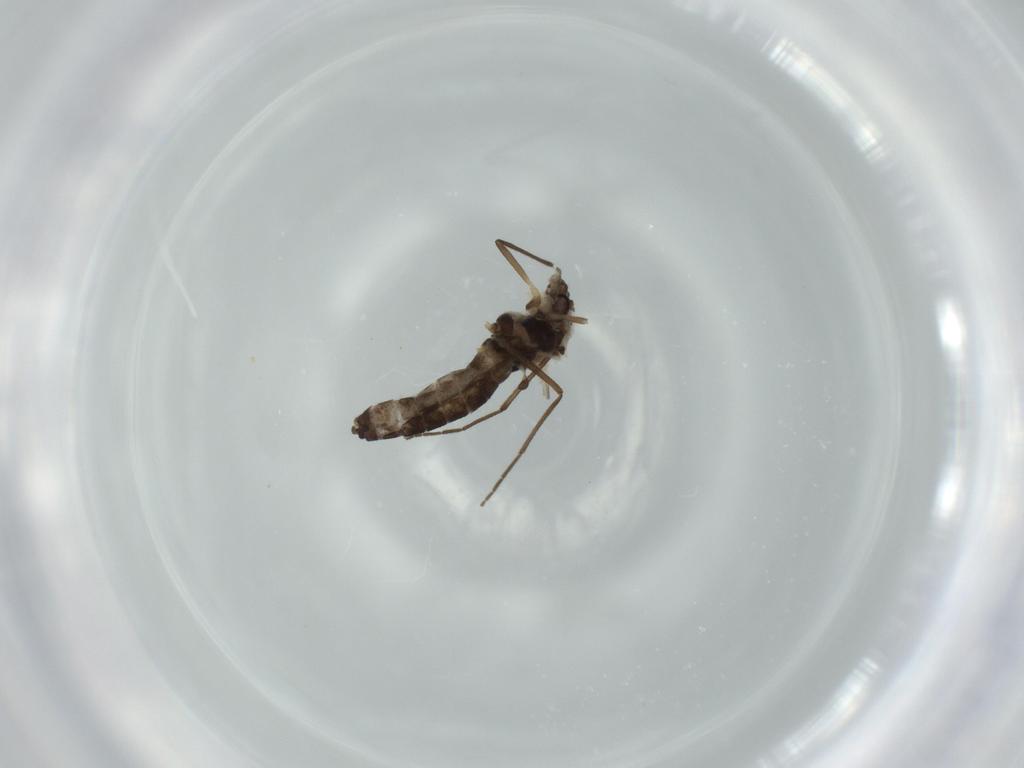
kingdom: Animalia
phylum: Arthropoda
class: Insecta
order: Diptera
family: Chironomidae
